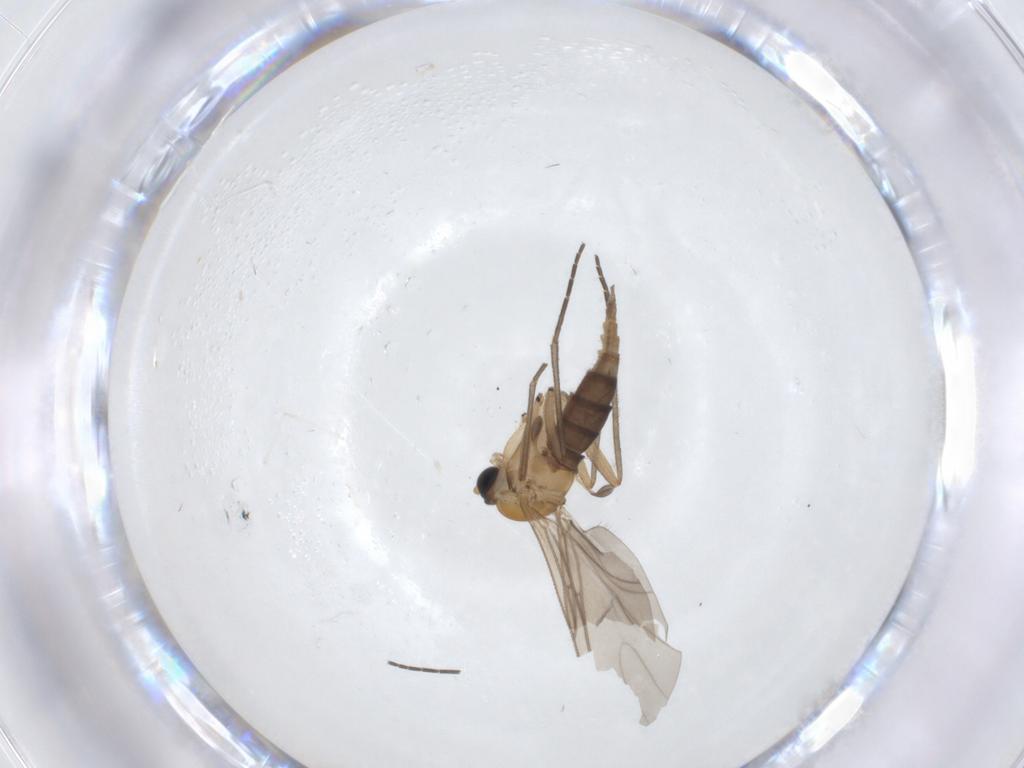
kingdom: Animalia
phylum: Arthropoda
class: Insecta
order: Diptera
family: Sciaridae
